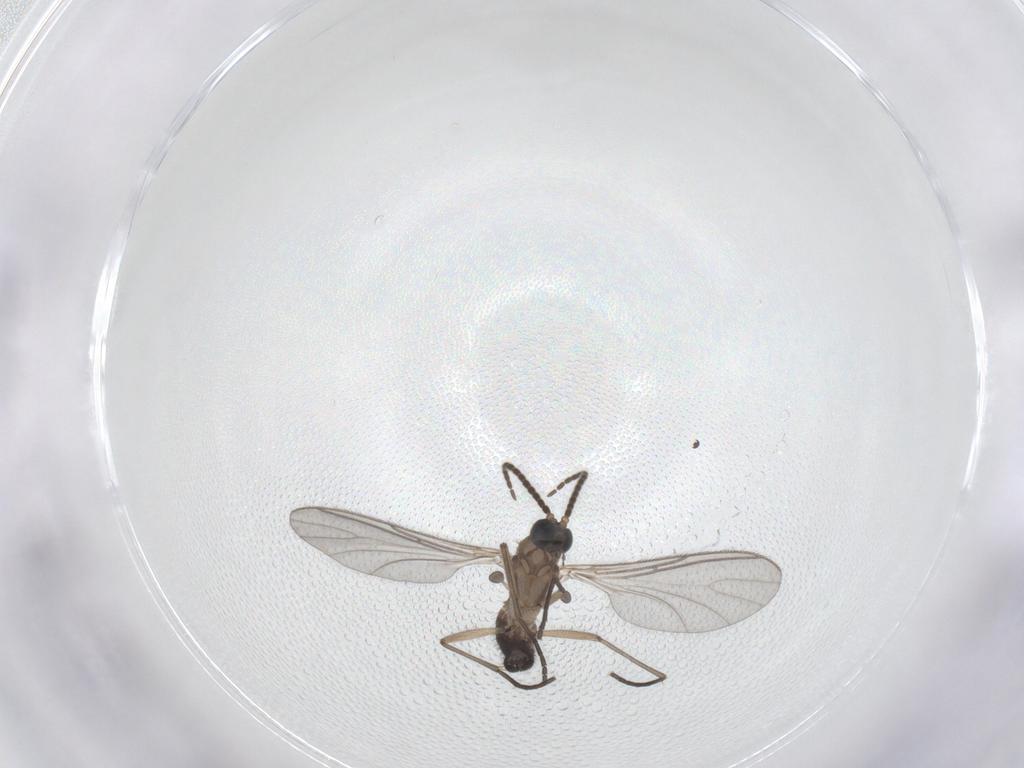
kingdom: Animalia
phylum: Arthropoda
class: Insecta
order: Diptera
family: Sciaridae
